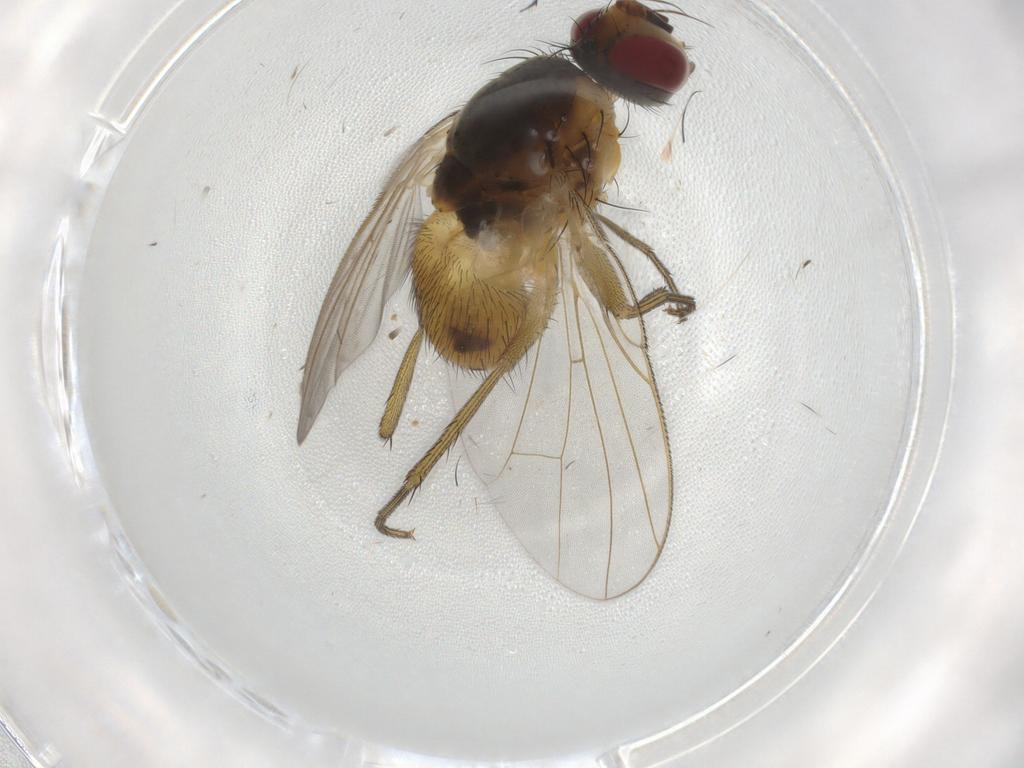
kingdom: Animalia
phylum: Arthropoda
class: Insecta
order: Diptera
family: Muscidae
